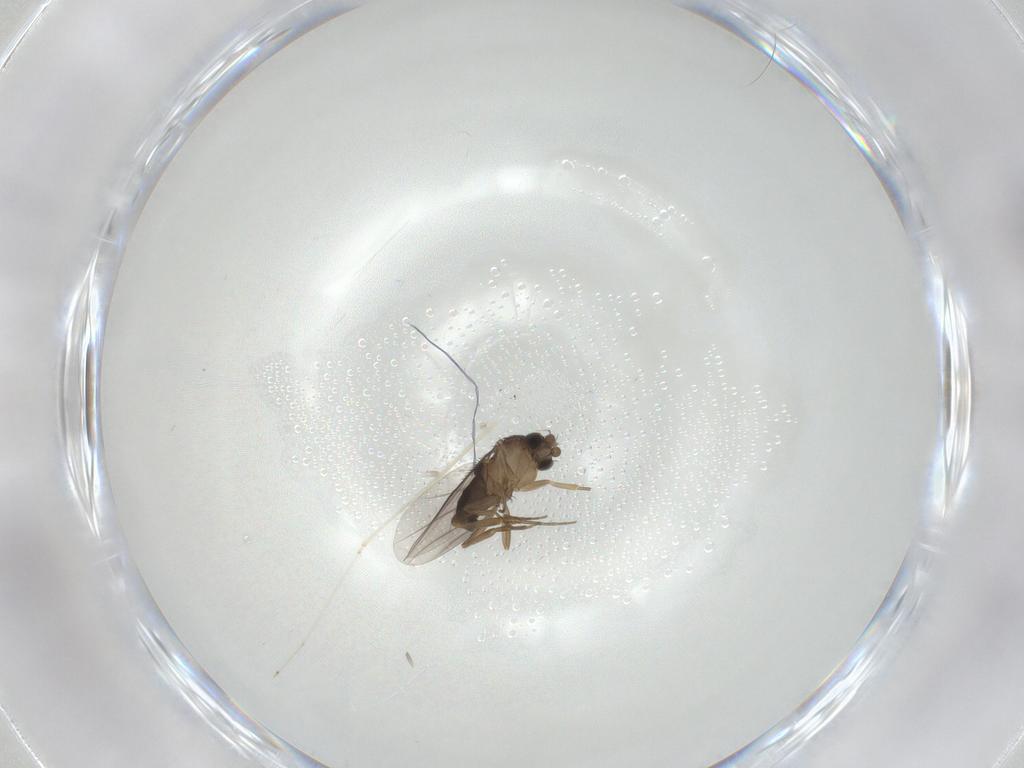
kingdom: Animalia
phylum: Arthropoda
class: Insecta
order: Diptera
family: Cecidomyiidae
